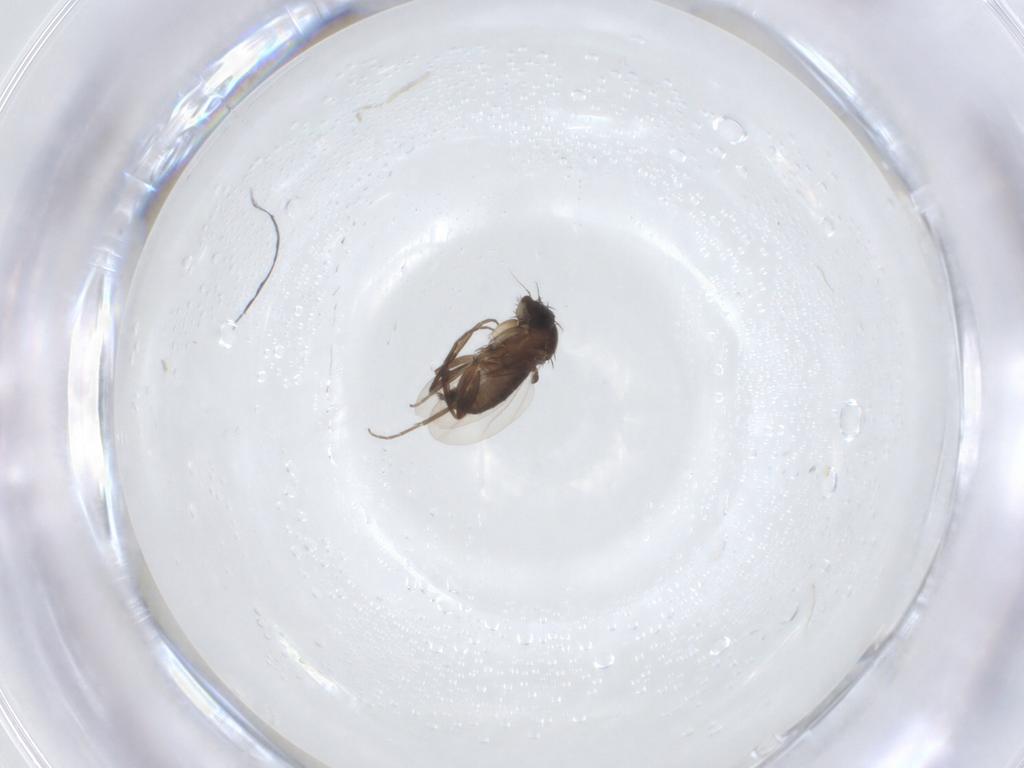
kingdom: Animalia
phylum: Arthropoda
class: Insecta
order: Diptera
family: Phoridae
